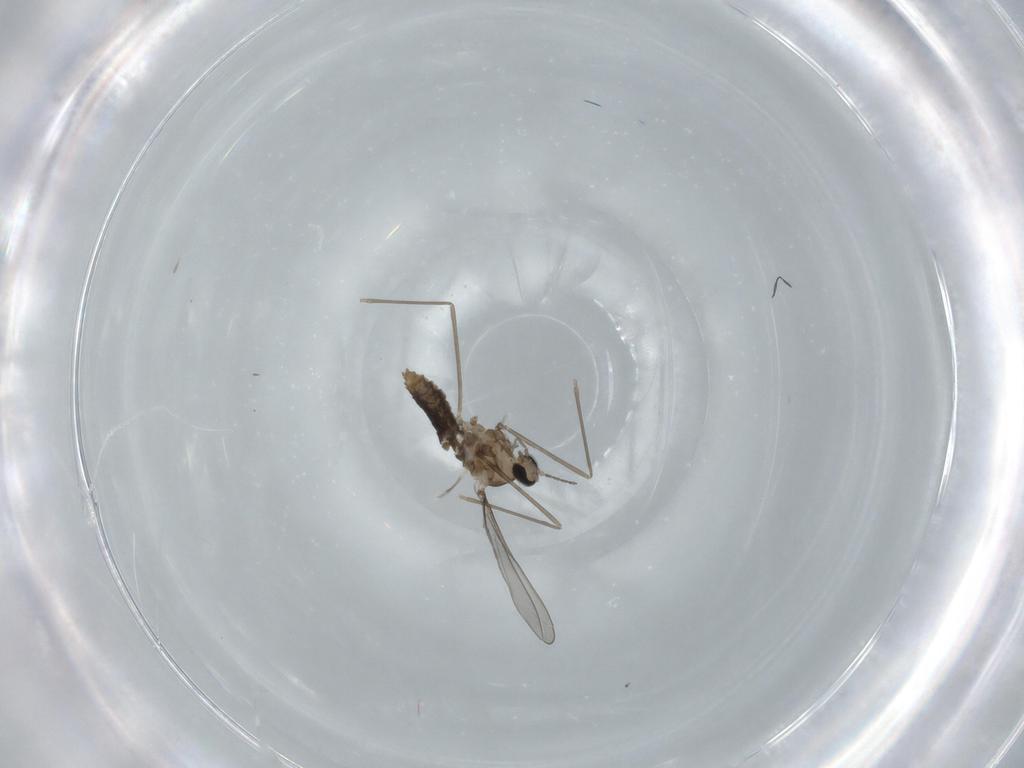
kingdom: Animalia
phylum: Arthropoda
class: Insecta
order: Diptera
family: Cecidomyiidae
